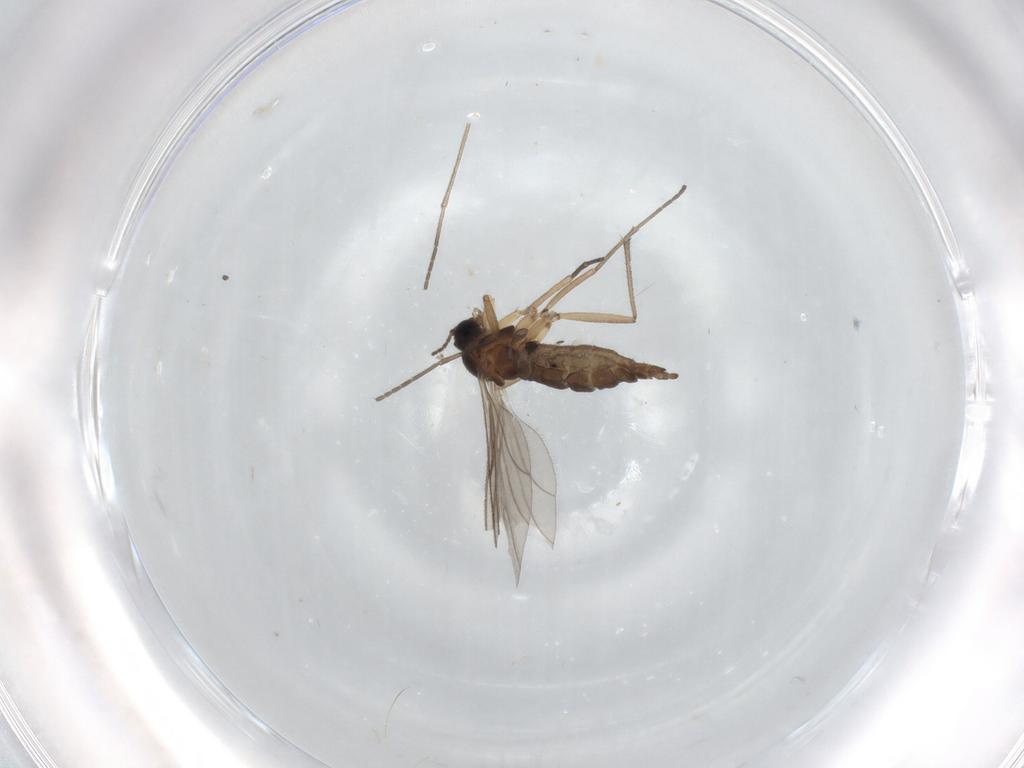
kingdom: Animalia
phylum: Arthropoda
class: Insecta
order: Diptera
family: Sciaridae
